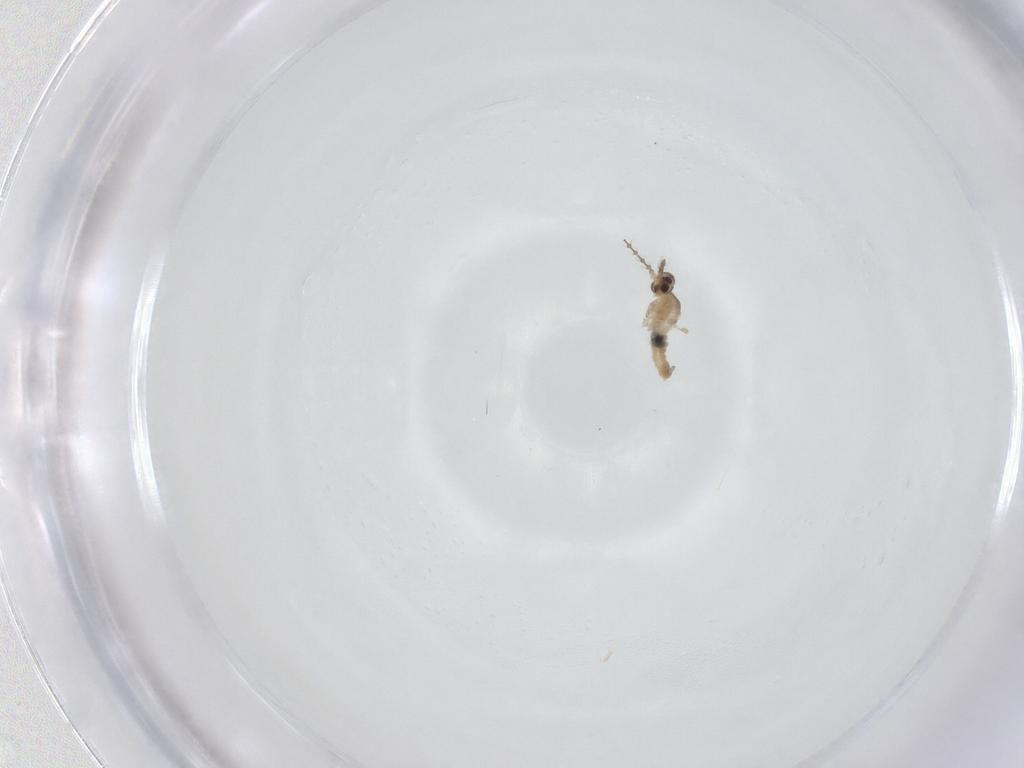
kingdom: Animalia
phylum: Arthropoda
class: Insecta
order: Diptera
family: Cecidomyiidae
